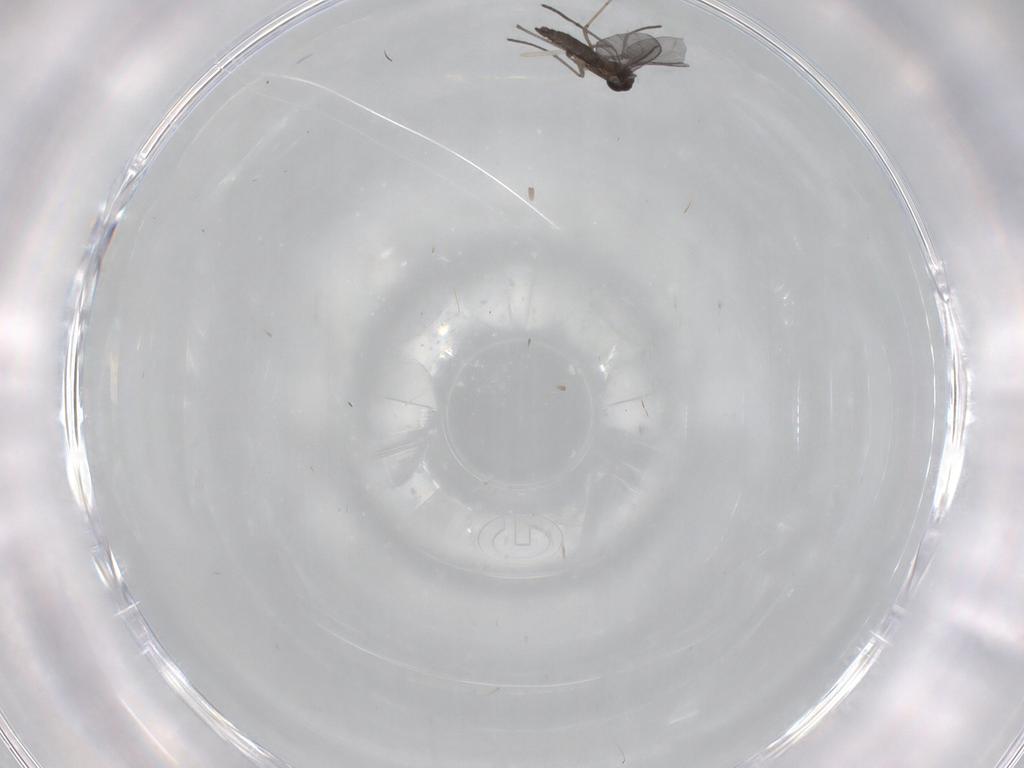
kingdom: Animalia
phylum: Arthropoda
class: Insecta
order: Diptera
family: Sciaridae
